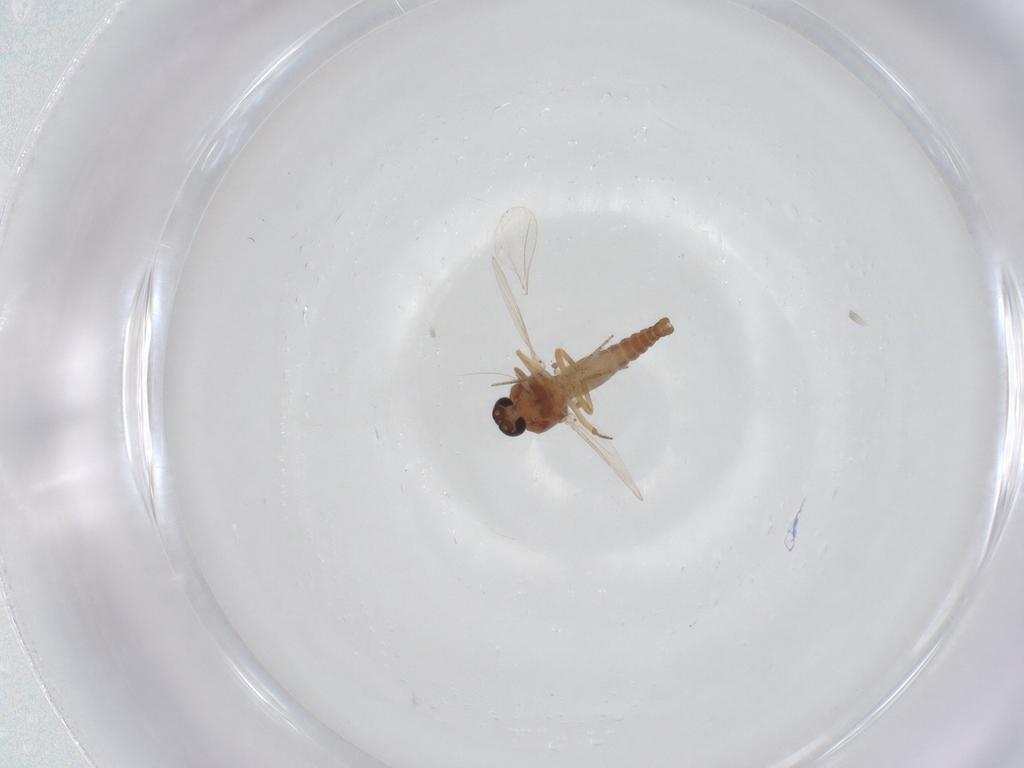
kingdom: Animalia
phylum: Arthropoda
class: Insecta
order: Diptera
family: Ceratopogonidae
